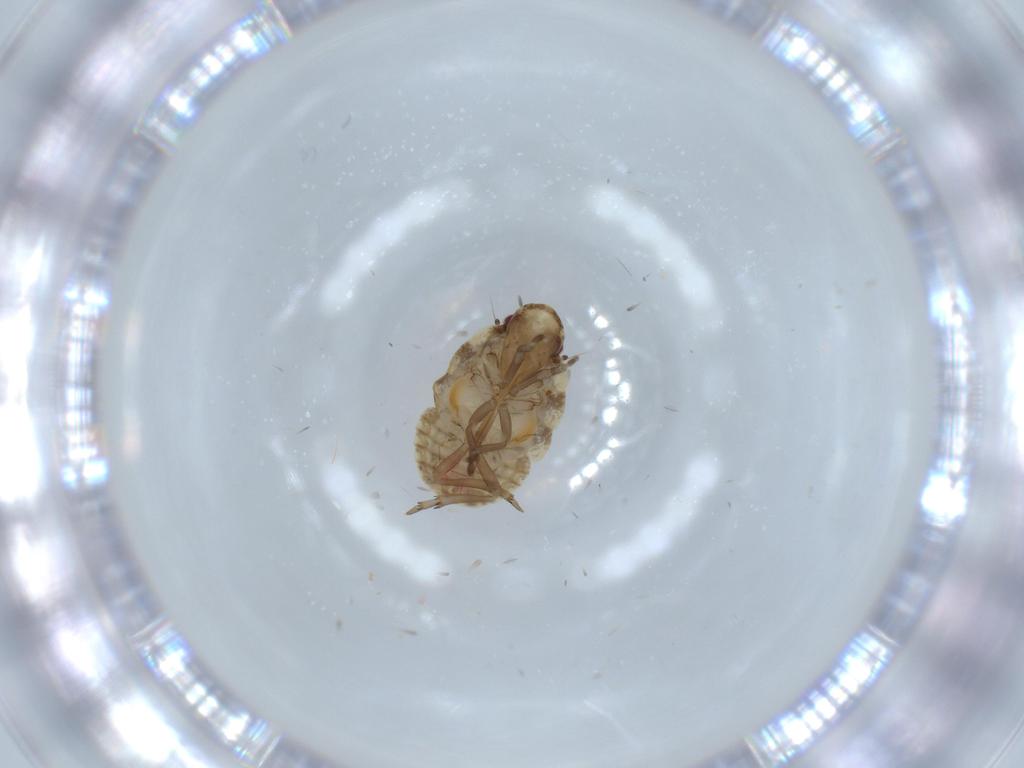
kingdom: Animalia
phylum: Arthropoda
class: Insecta
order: Hemiptera
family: Flatidae
